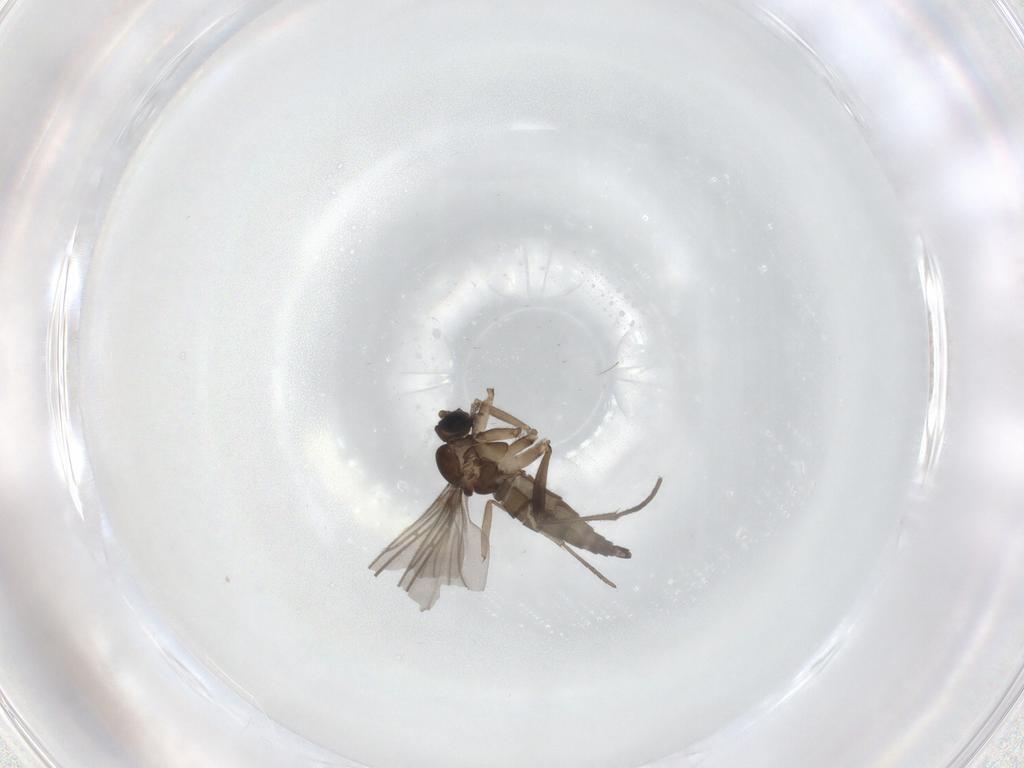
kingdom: Animalia
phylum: Arthropoda
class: Insecta
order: Diptera
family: Sciaridae
